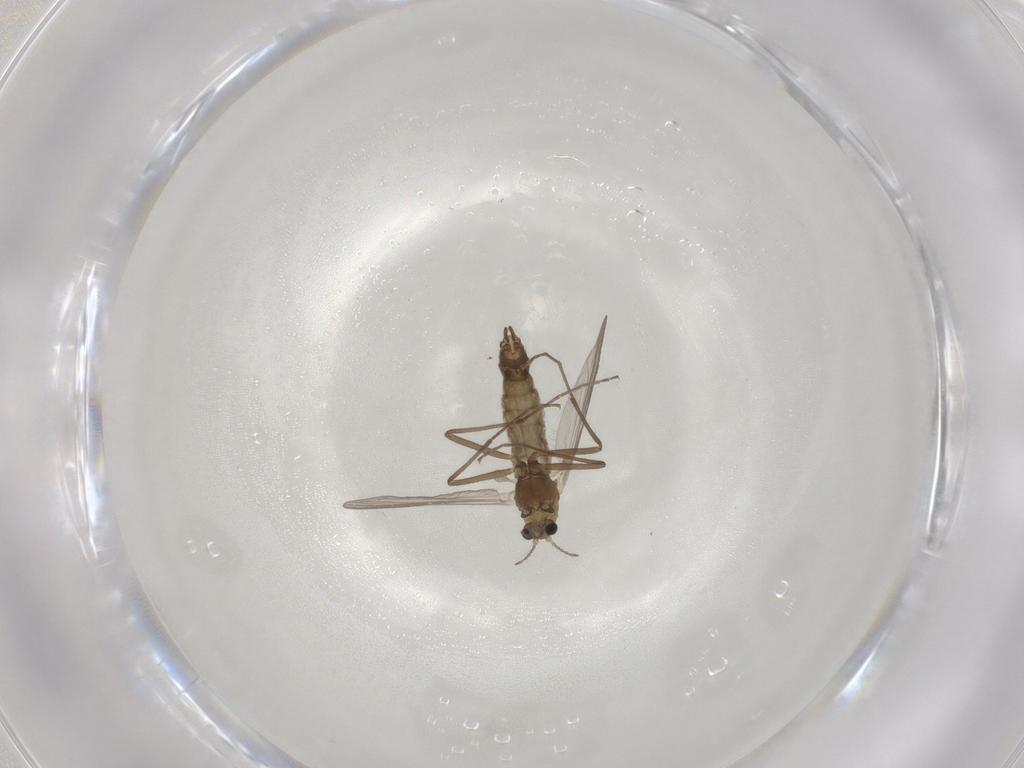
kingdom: Animalia
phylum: Arthropoda
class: Insecta
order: Diptera
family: Chironomidae
